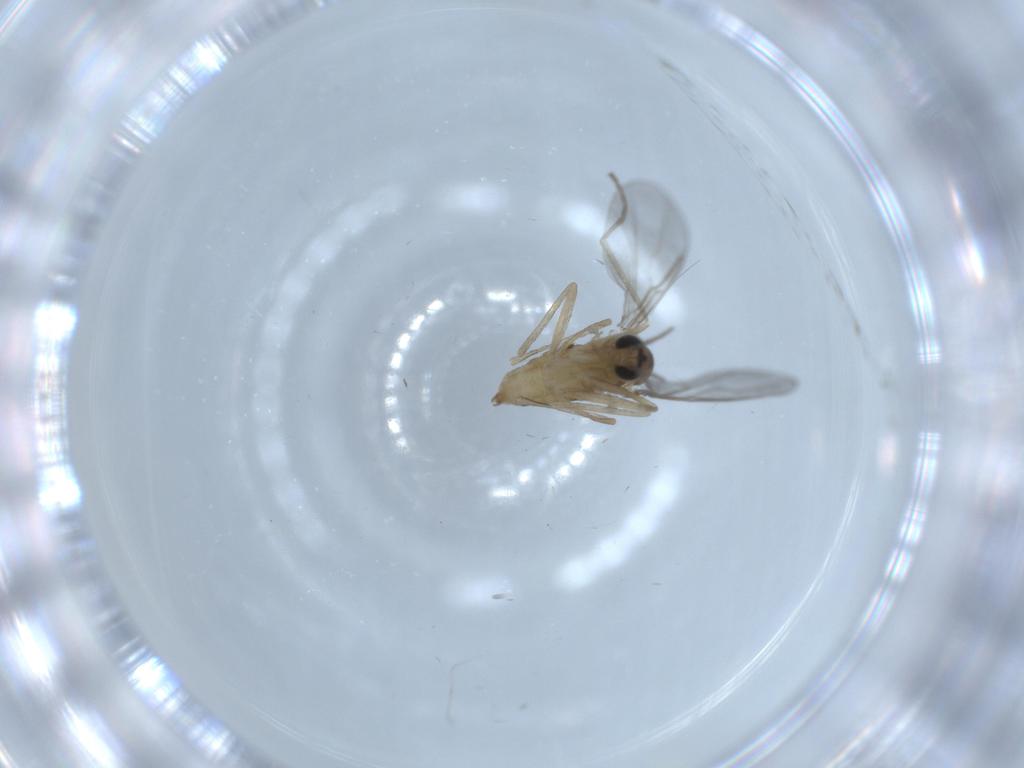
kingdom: Animalia
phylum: Arthropoda
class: Insecta
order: Diptera
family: Cecidomyiidae
